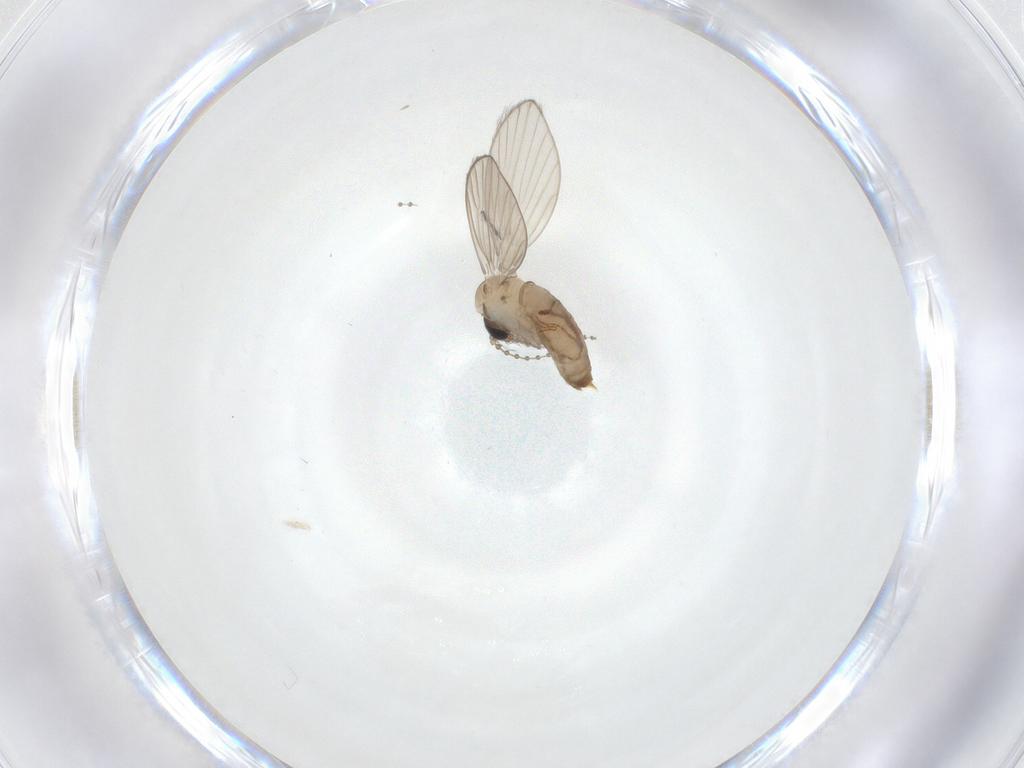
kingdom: Animalia
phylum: Arthropoda
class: Insecta
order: Diptera
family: Psychodidae
